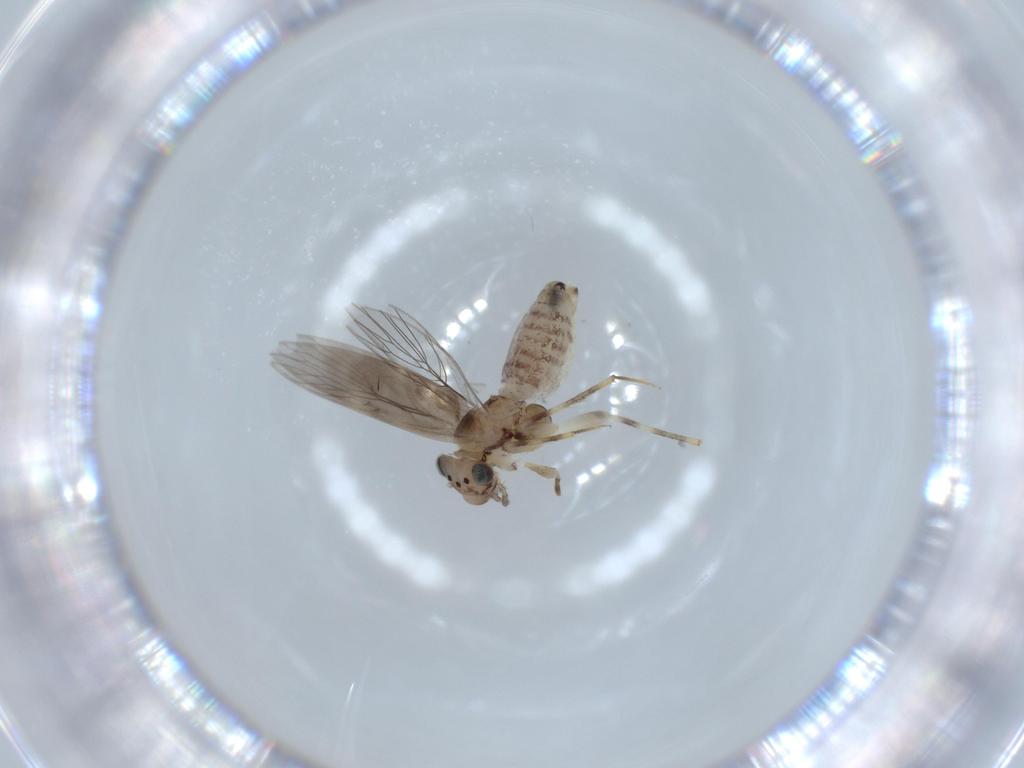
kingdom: Animalia
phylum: Arthropoda
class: Insecta
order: Psocodea
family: Lepidopsocidae
